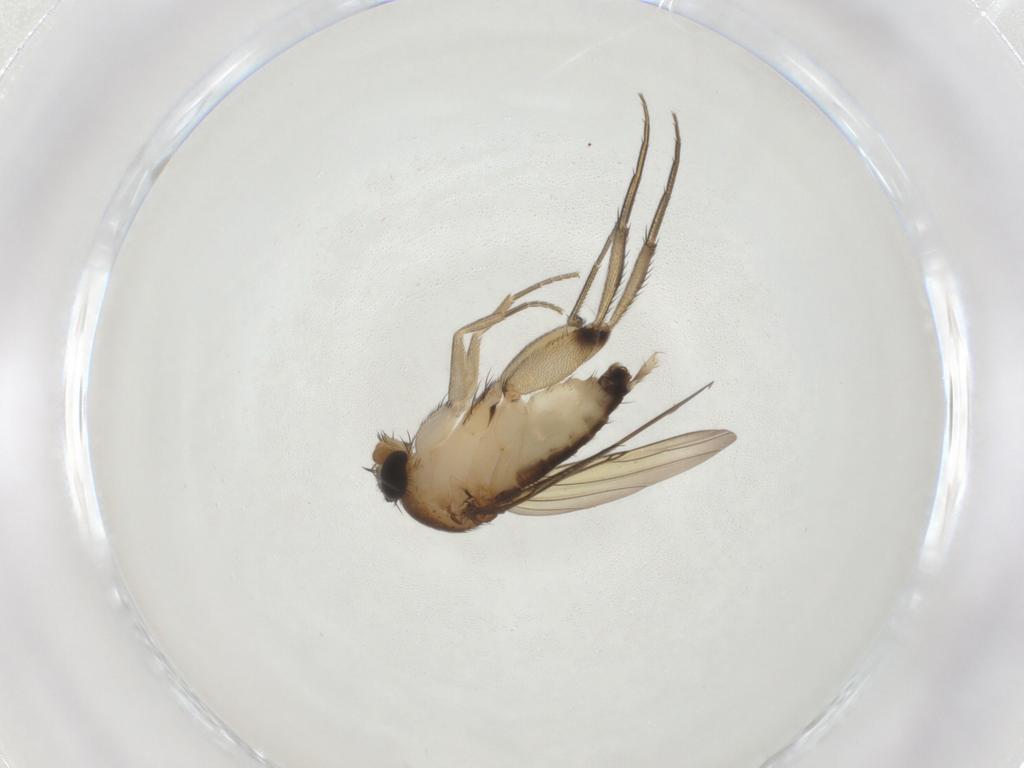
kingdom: Animalia
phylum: Arthropoda
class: Insecta
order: Diptera
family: Phoridae
